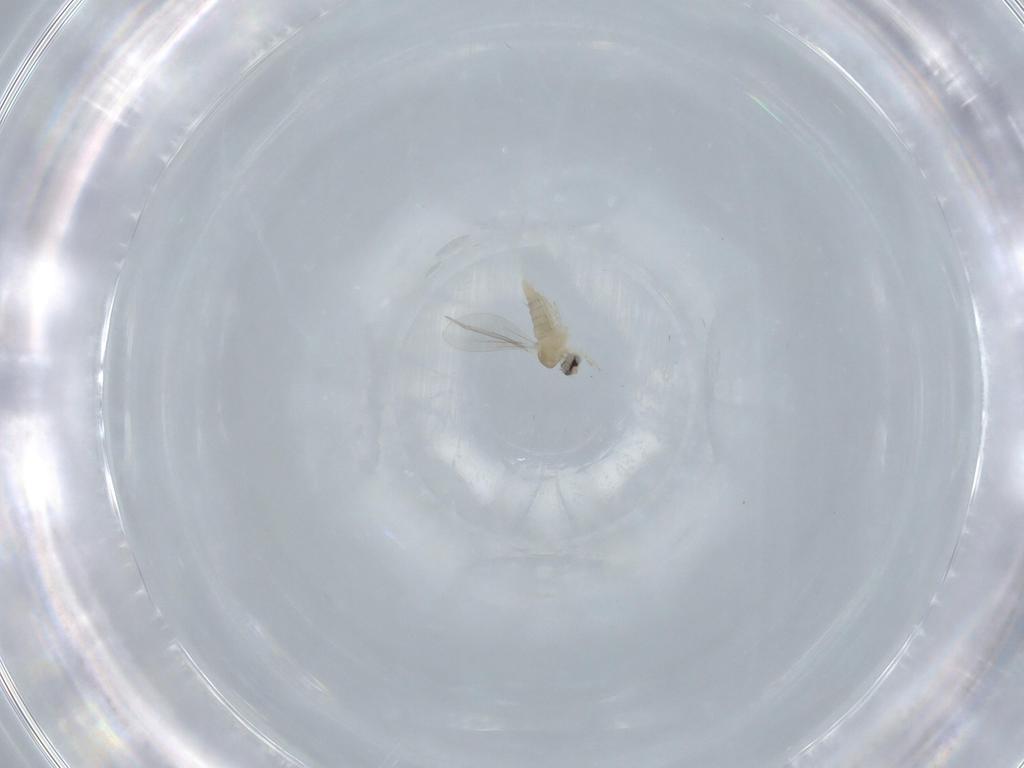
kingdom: Animalia
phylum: Arthropoda
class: Insecta
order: Diptera
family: Cecidomyiidae
